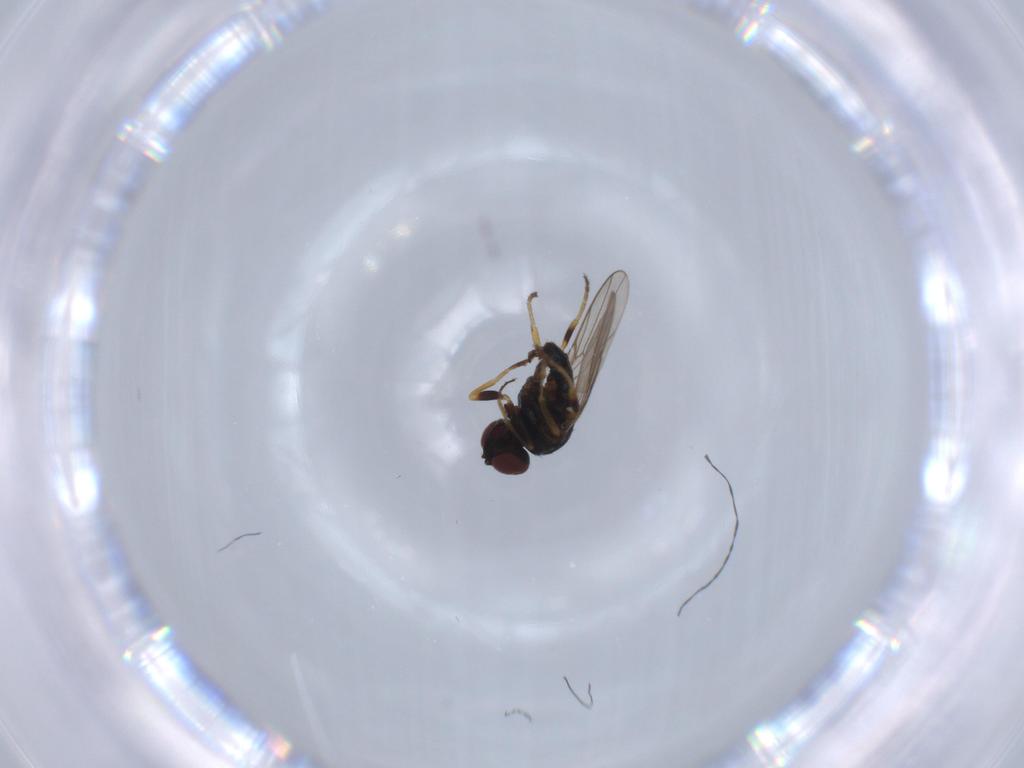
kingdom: Animalia
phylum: Arthropoda
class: Insecta
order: Diptera
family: Chloropidae
